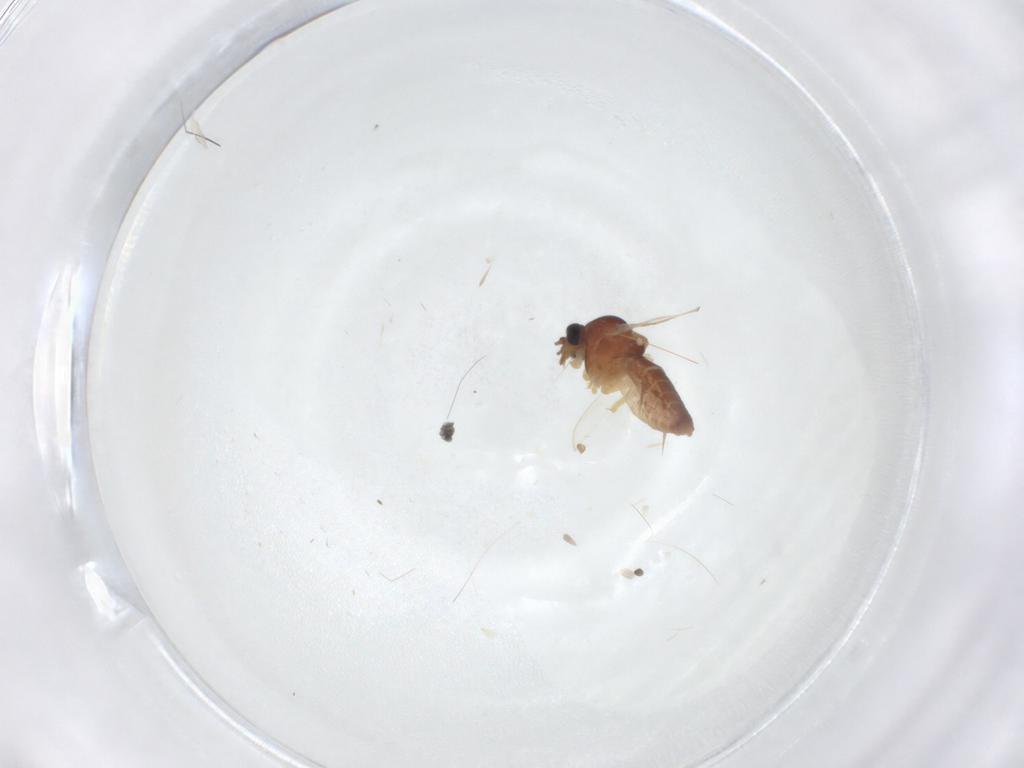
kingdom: Animalia
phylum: Arthropoda
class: Insecta
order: Diptera
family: Ceratopogonidae
